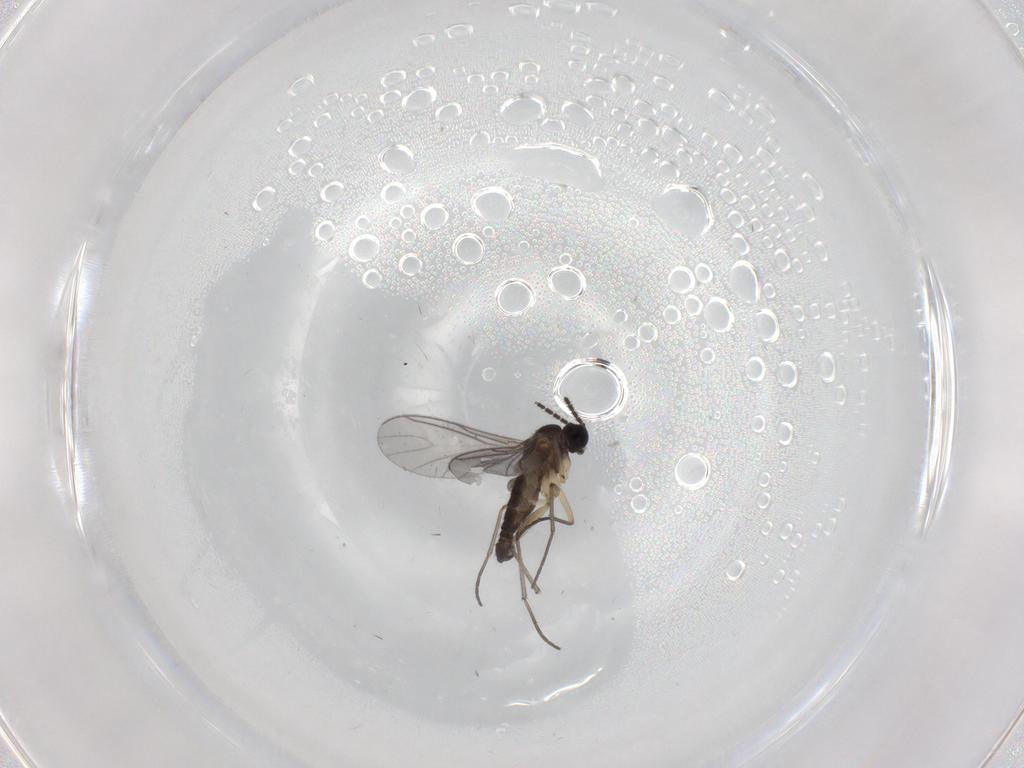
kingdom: Animalia
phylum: Arthropoda
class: Insecta
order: Diptera
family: Sciaridae
